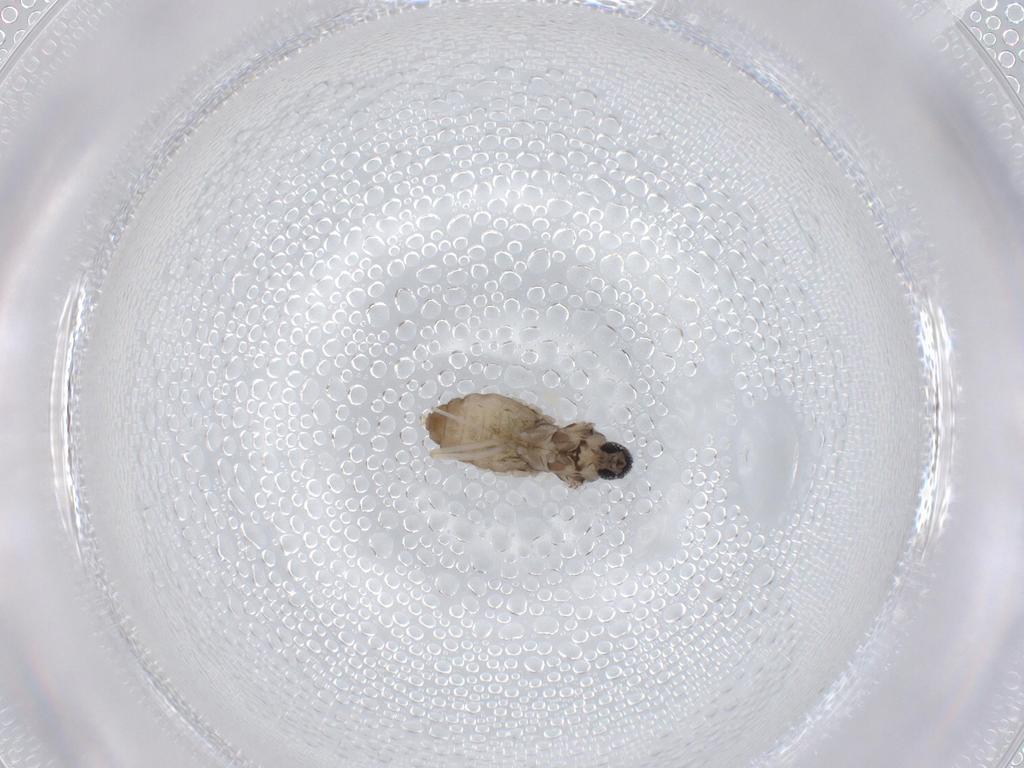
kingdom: Animalia
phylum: Arthropoda
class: Insecta
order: Diptera
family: Cecidomyiidae
